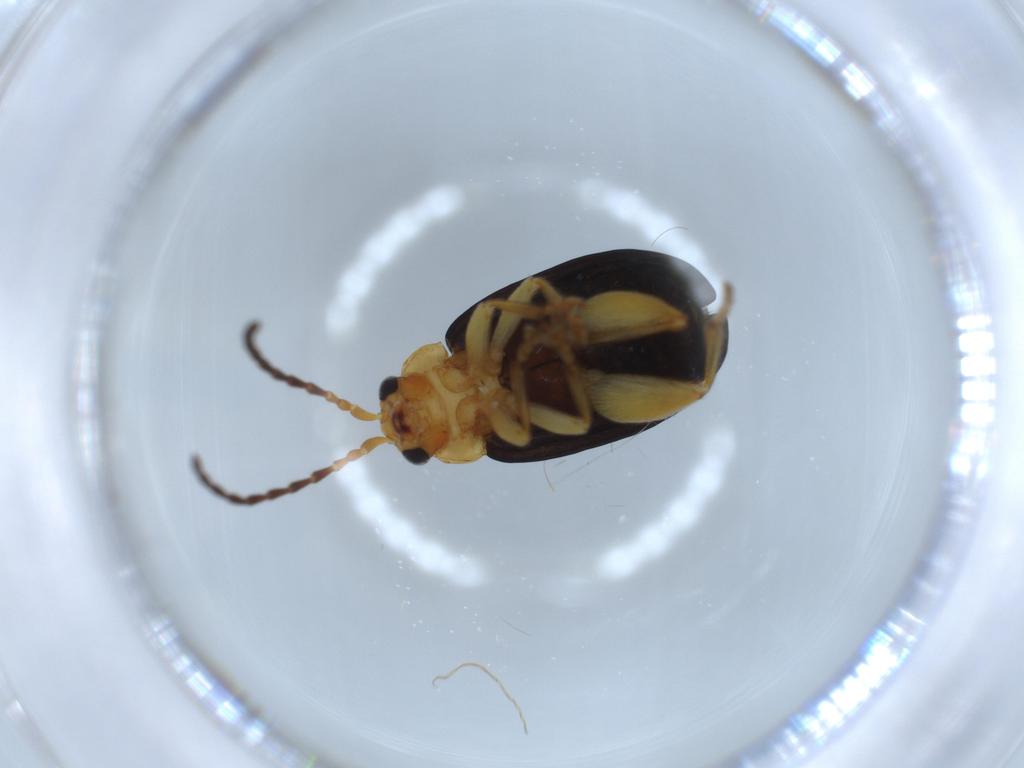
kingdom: Animalia
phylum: Arthropoda
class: Insecta
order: Coleoptera
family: Chrysomelidae
